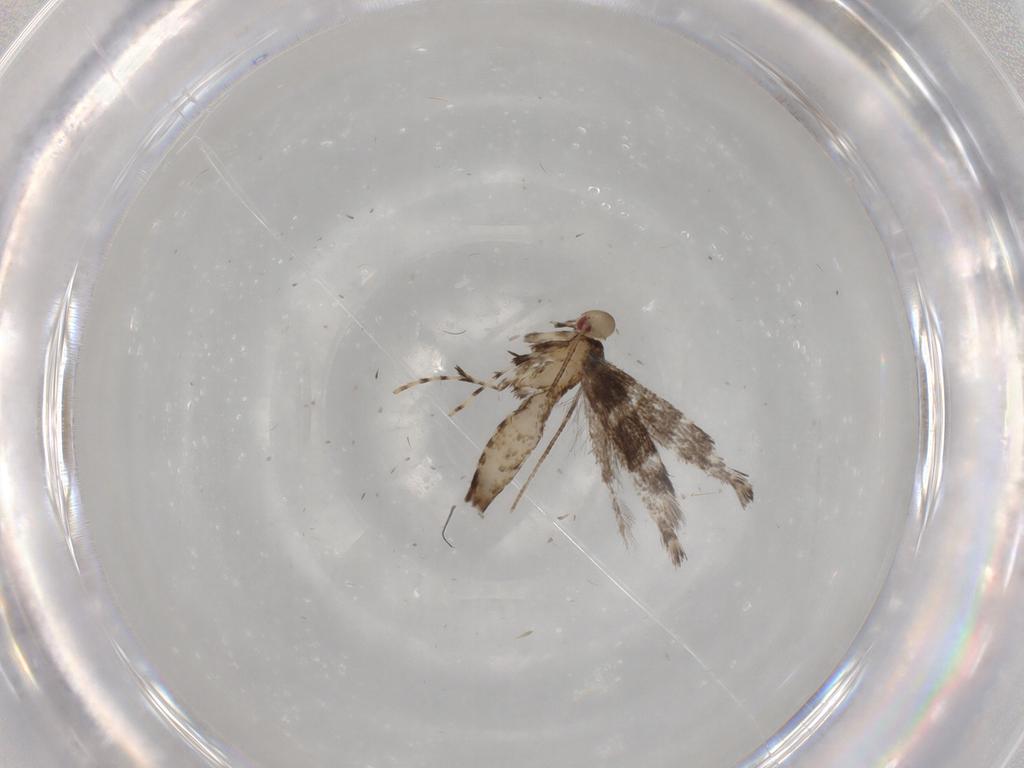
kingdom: Animalia
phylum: Arthropoda
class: Insecta
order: Lepidoptera
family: Gracillariidae
